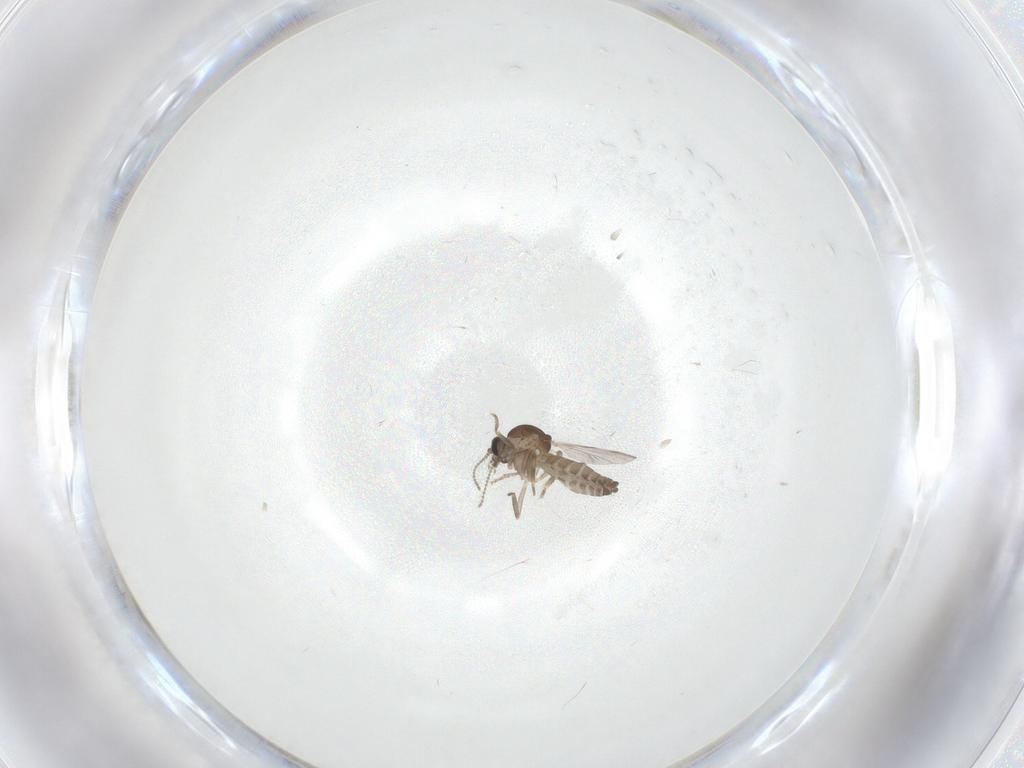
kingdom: Animalia
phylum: Arthropoda
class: Insecta
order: Diptera
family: Ceratopogonidae
